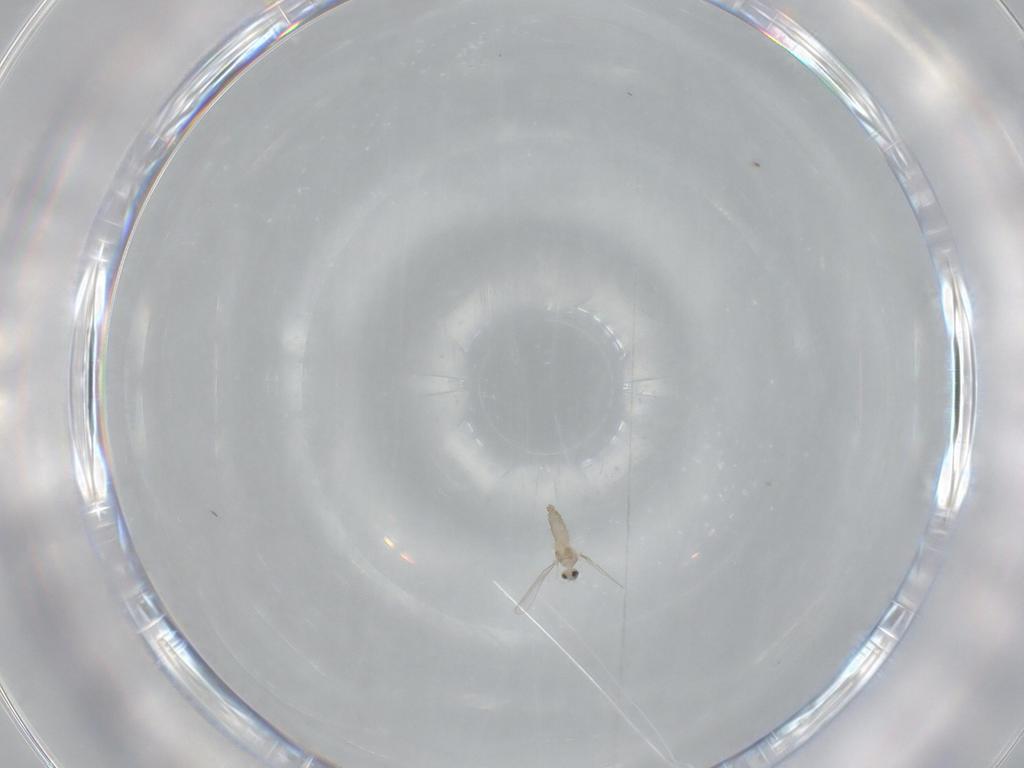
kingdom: Animalia
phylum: Arthropoda
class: Insecta
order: Diptera
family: Cecidomyiidae
